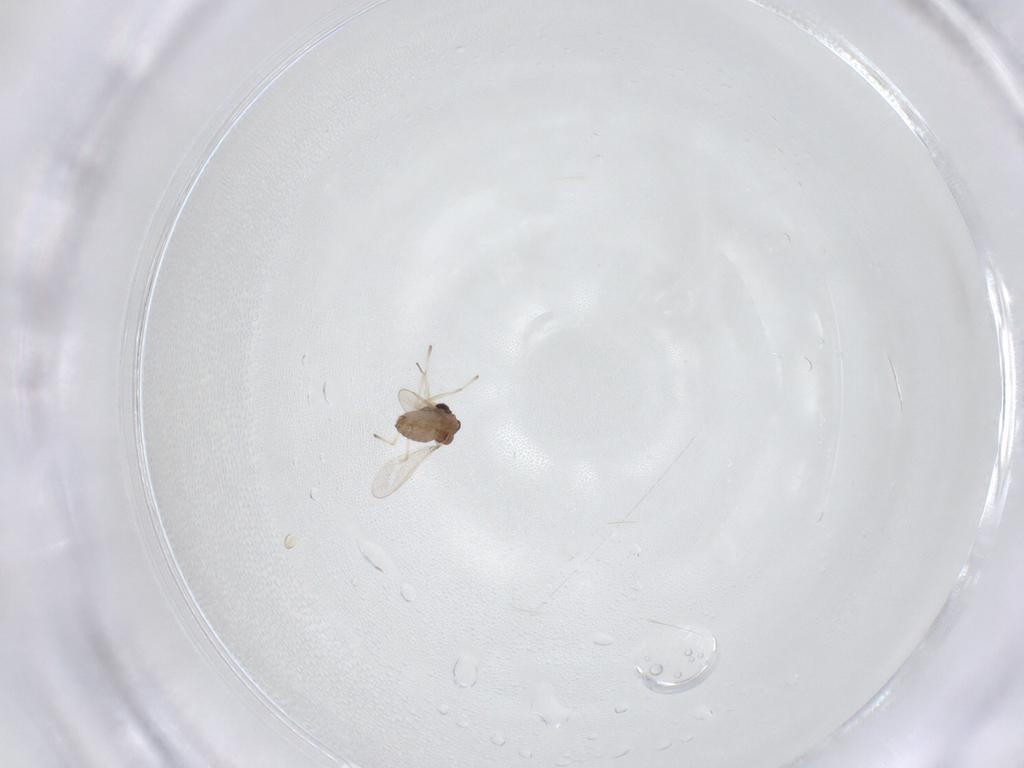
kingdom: Animalia
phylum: Arthropoda
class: Insecta
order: Diptera
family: Chironomidae
